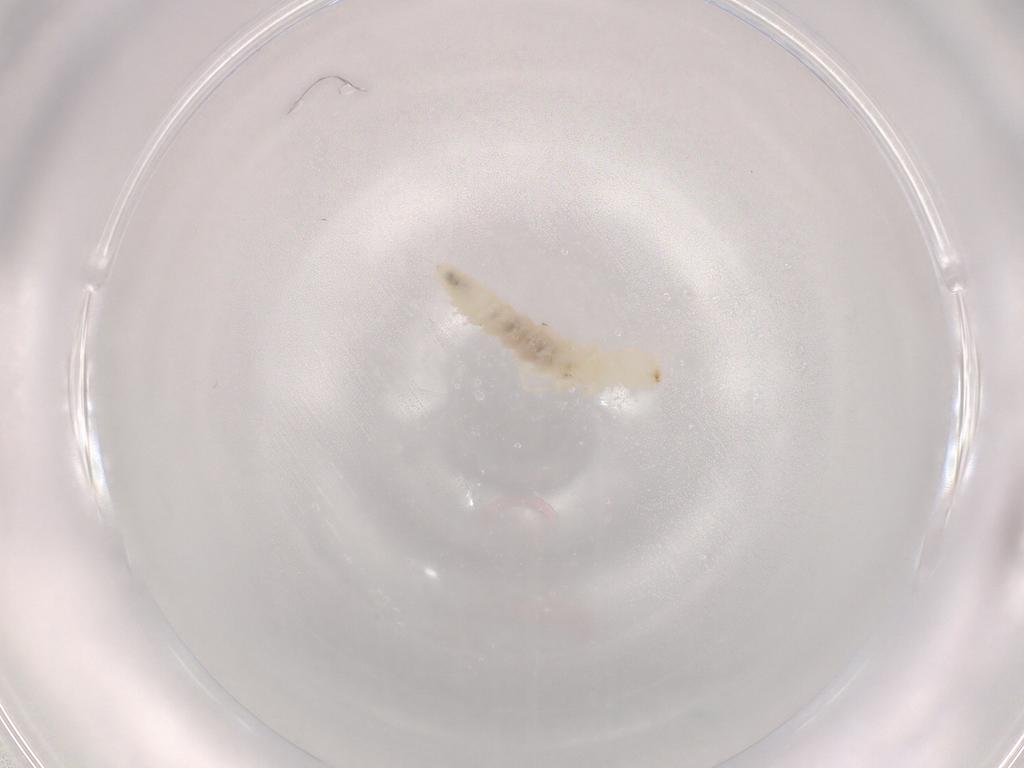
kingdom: Animalia
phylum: Arthropoda
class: Diplura
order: Diplura
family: Campodeidae
